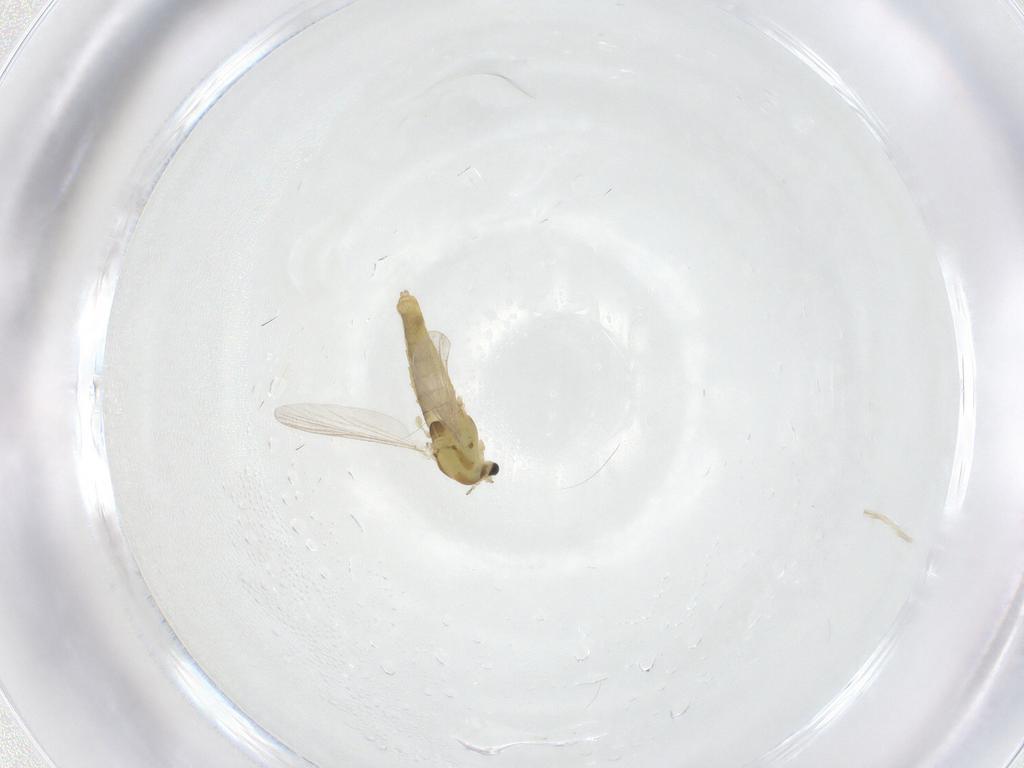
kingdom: Animalia
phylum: Arthropoda
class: Insecta
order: Diptera
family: Chironomidae
